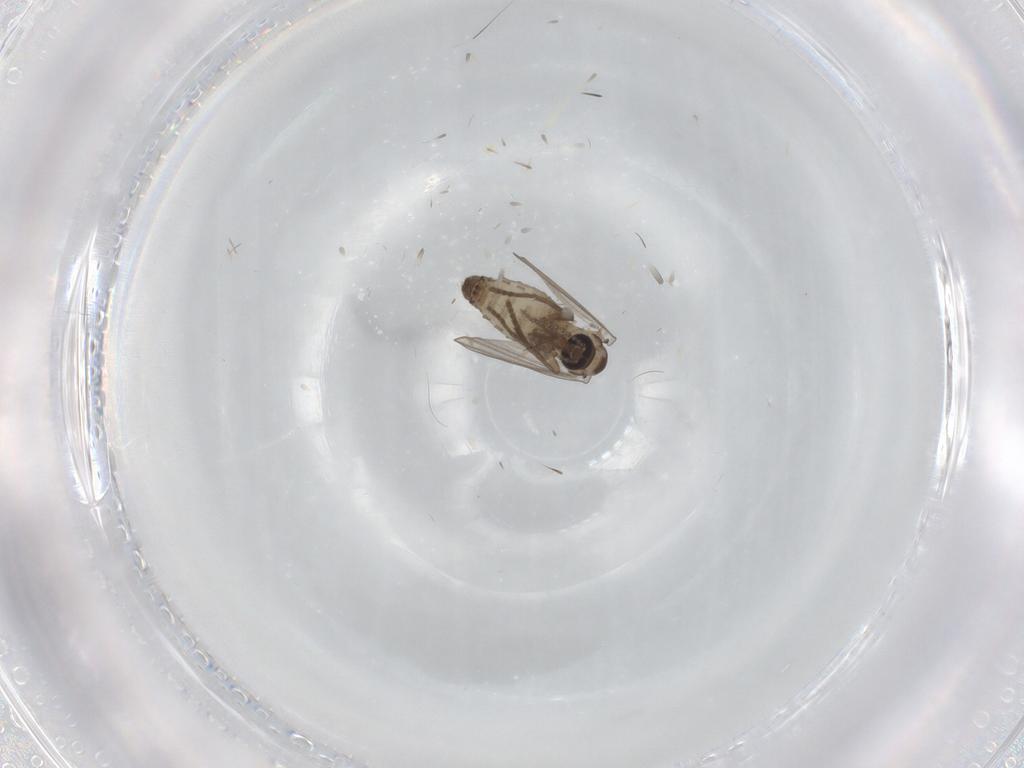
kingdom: Animalia
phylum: Arthropoda
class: Insecta
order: Diptera
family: Psychodidae
